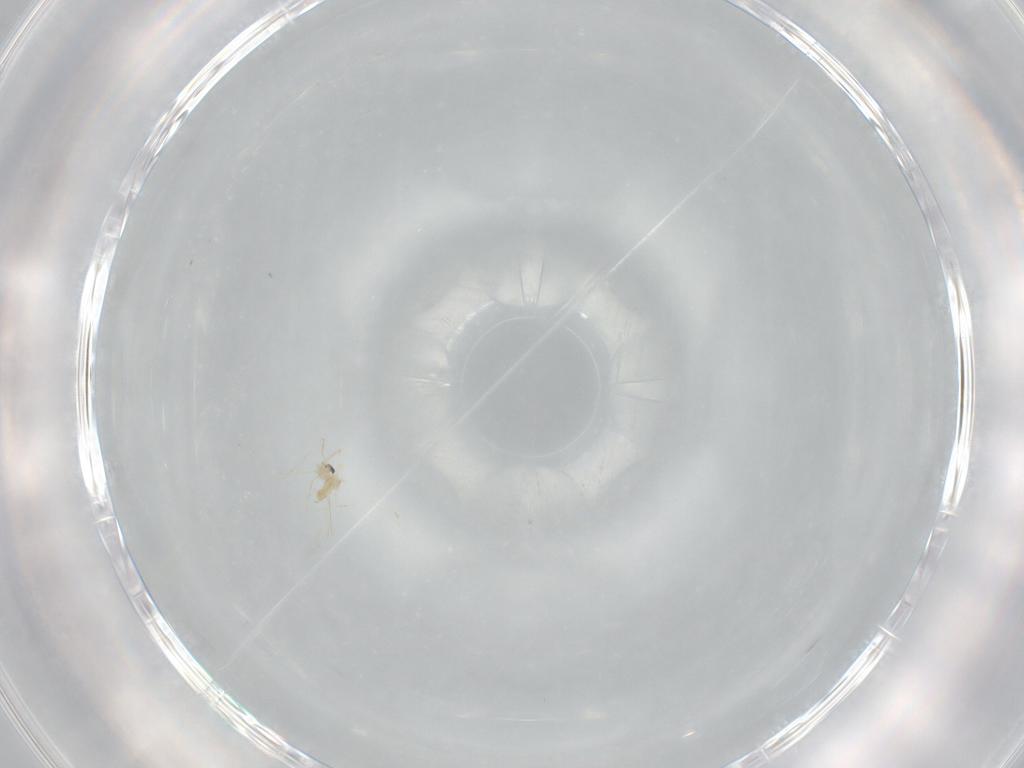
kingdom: Animalia
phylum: Arthropoda
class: Insecta
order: Diptera
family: Cecidomyiidae
